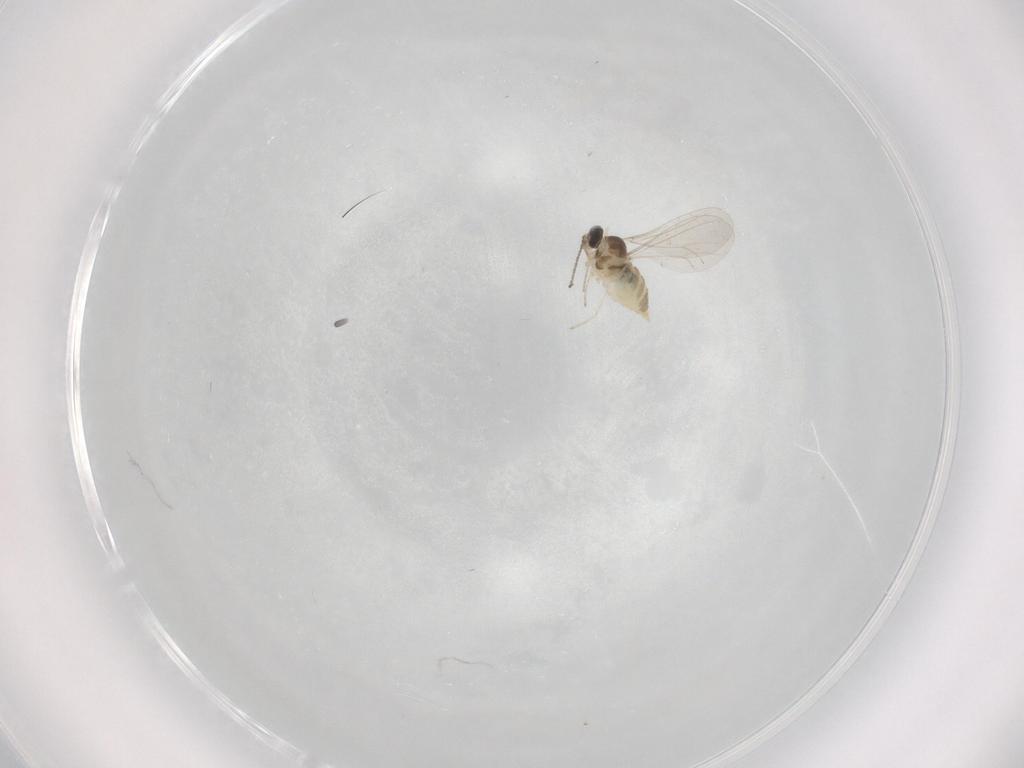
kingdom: Animalia
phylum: Arthropoda
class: Insecta
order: Diptera
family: Cecidomyiidae
